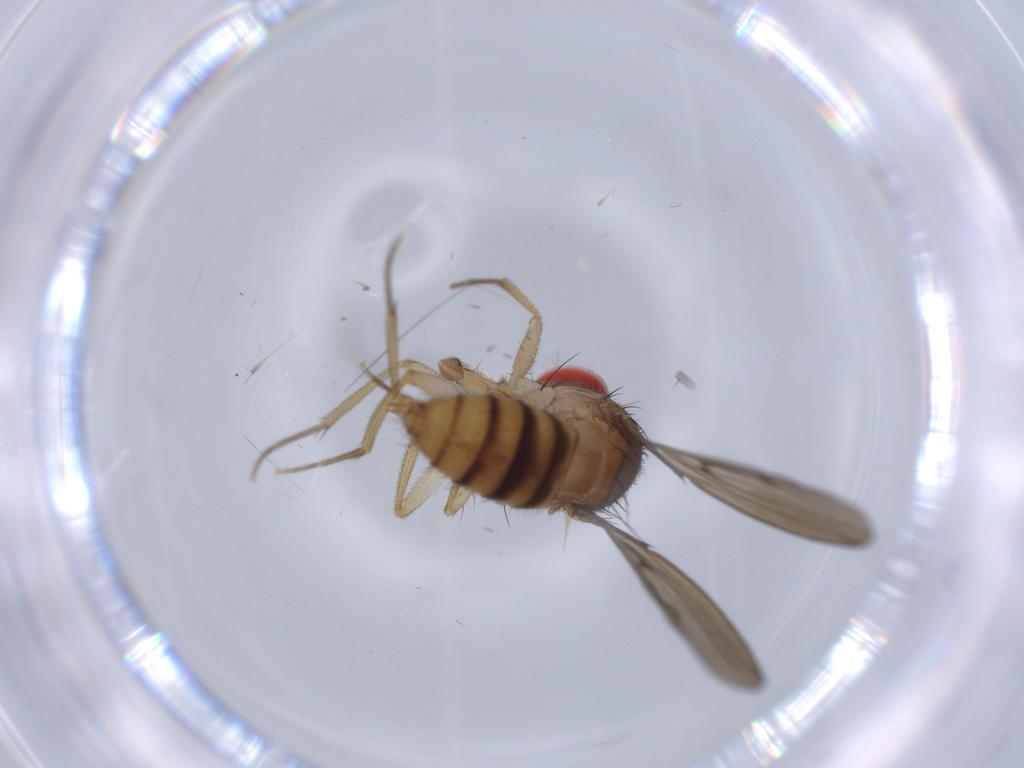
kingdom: Animalia
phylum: Arthropoda
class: Insecta
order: Diptera
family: Drosophilidae
